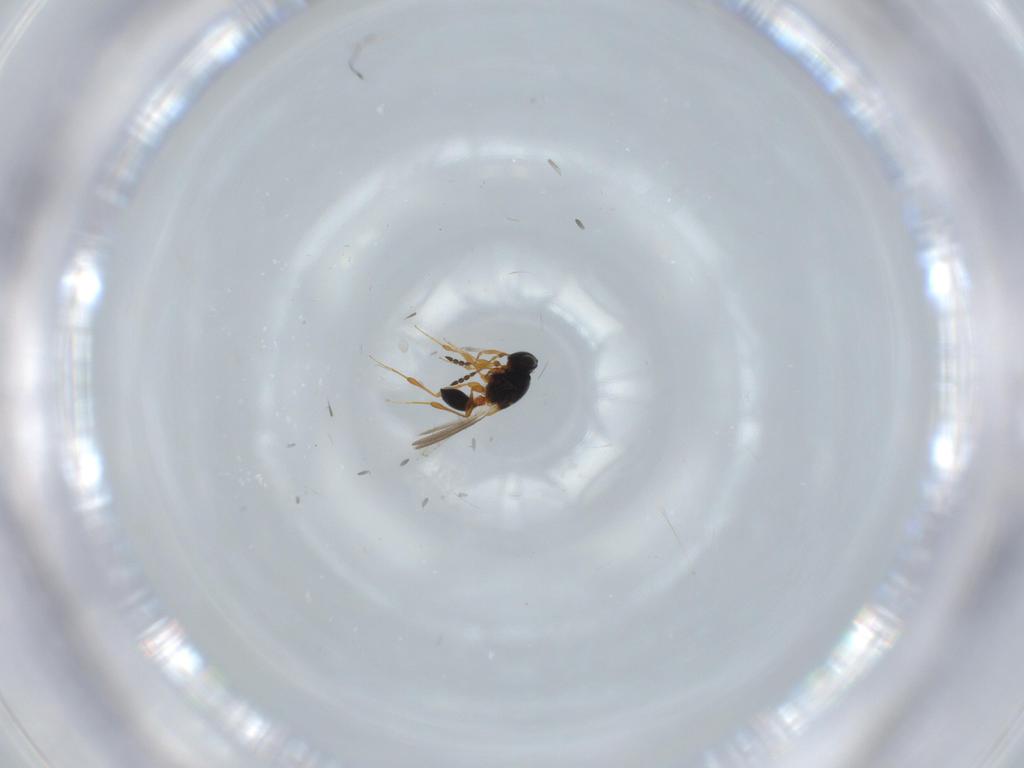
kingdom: Animalia
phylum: Arthropoda
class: Insecta
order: Hymenoptera
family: Platygastridae
